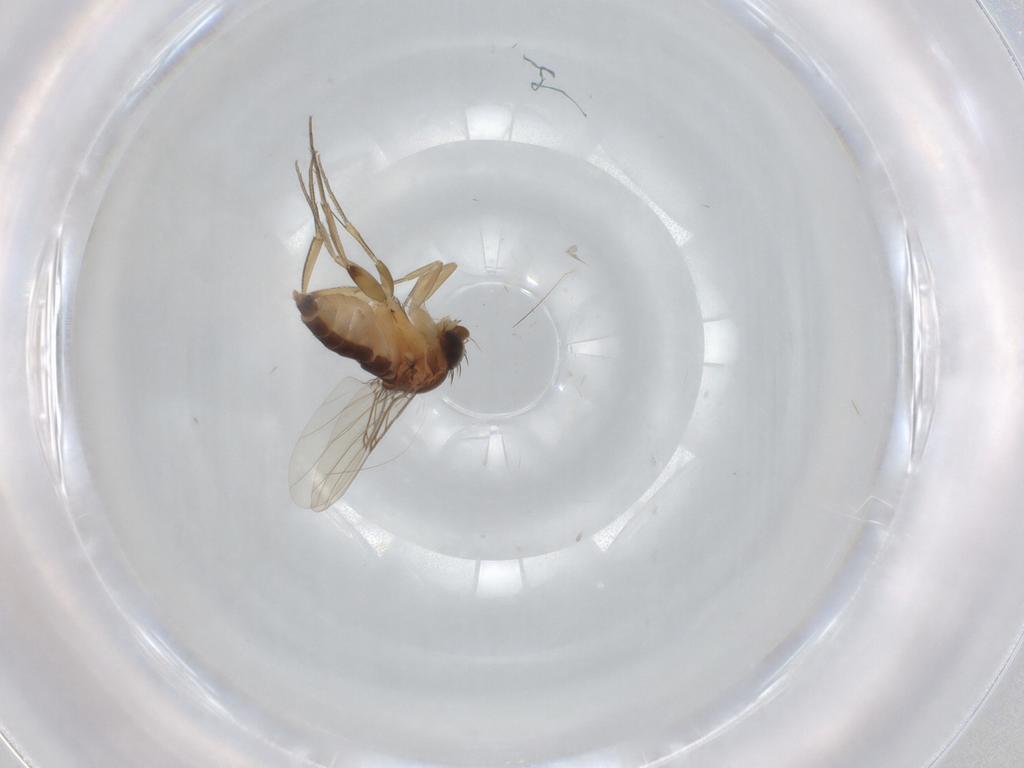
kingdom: Animalia
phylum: Arthropoda
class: Insecta
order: Diptera
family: Phoridae
